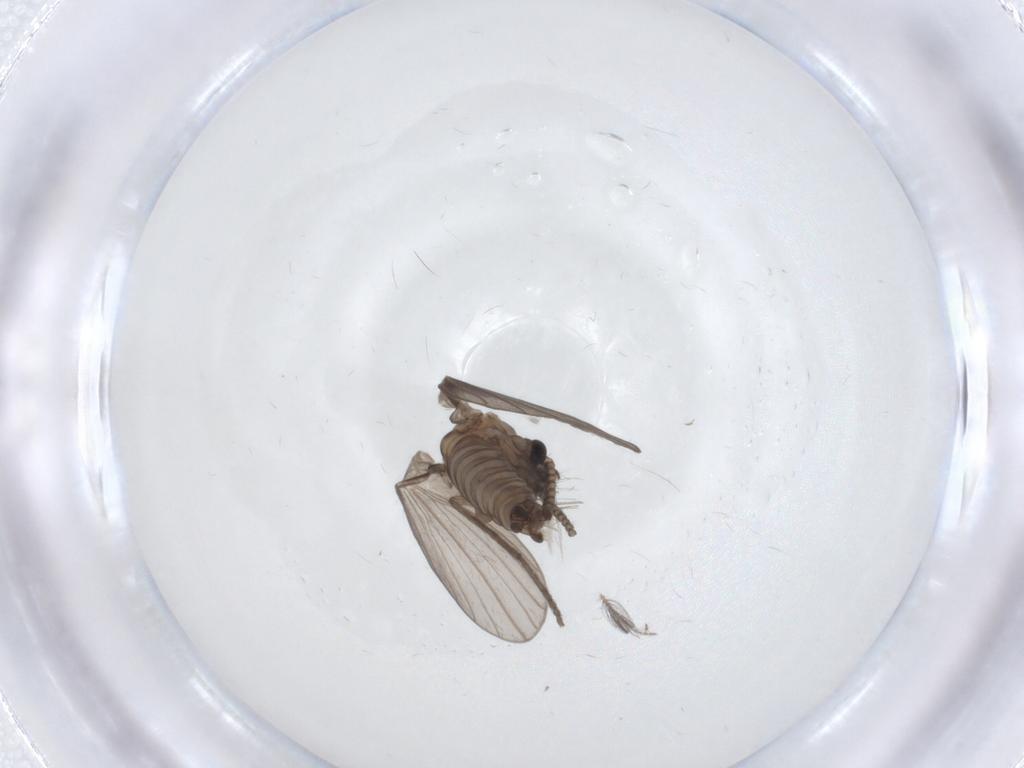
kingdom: Animalia
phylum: Arthropoda
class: Insecta
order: Diptera
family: Psychodidae
